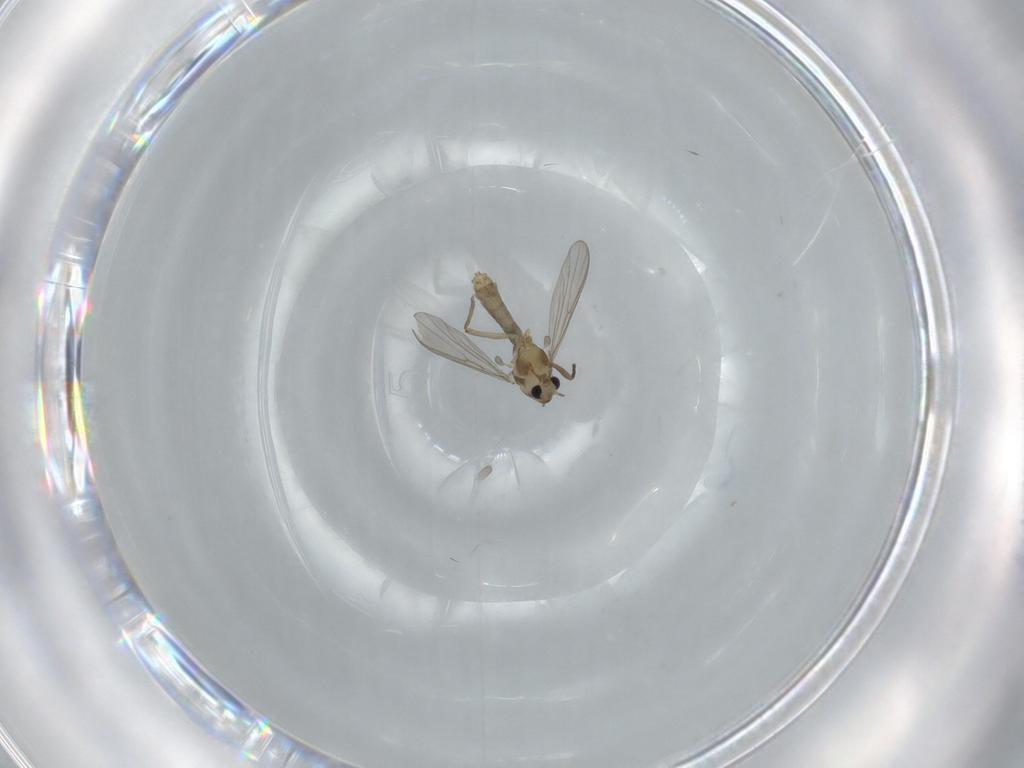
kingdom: Animalia
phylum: Arthropoda
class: Insecta
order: Diptera
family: Chironomidae
